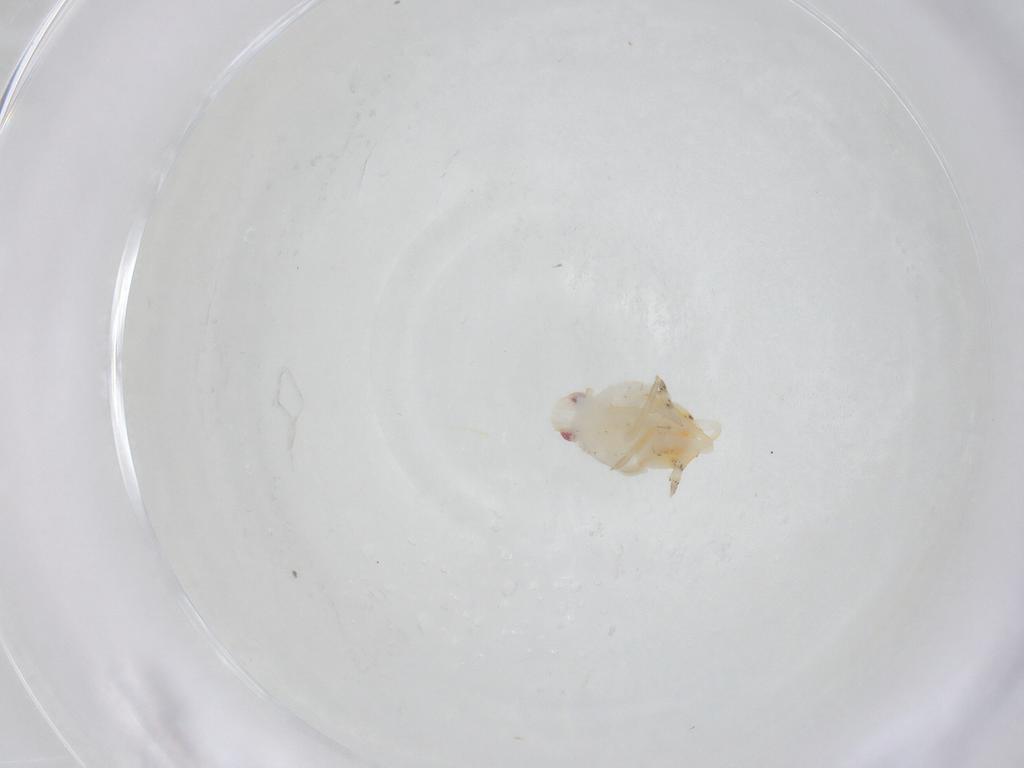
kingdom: Animalia
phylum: Arthropoda
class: Insecta
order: Hemiptera
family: Flatidae
